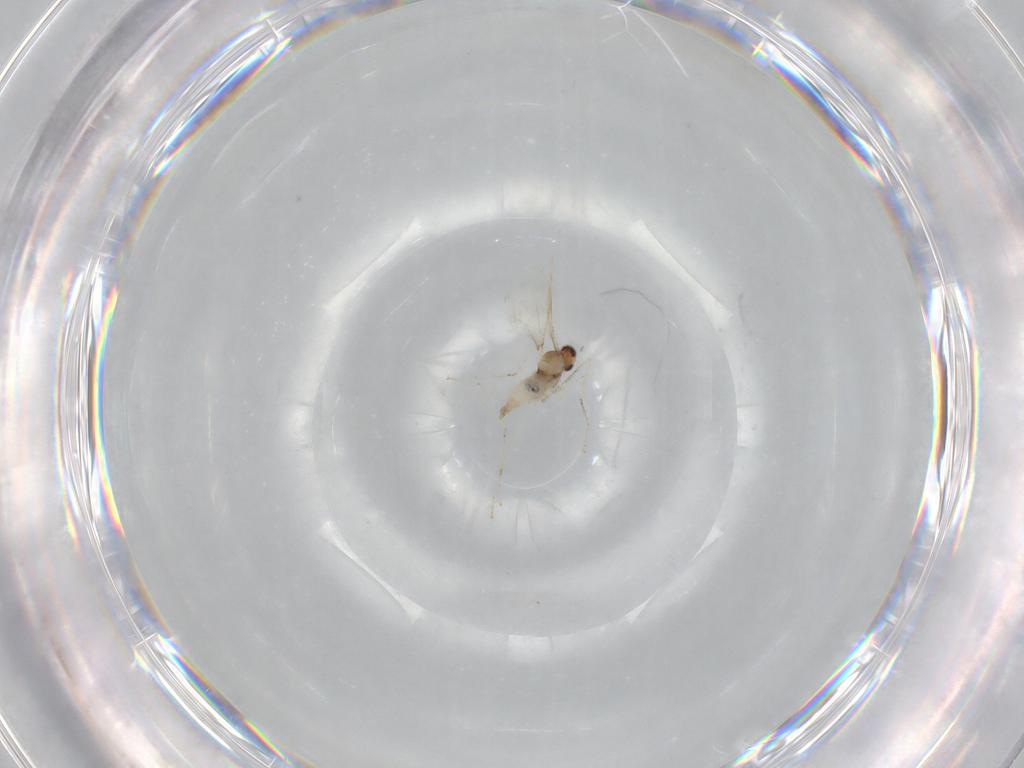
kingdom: Animalia
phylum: Arthropoda
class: Insecta
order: Diptera
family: Cecidomyiidae
